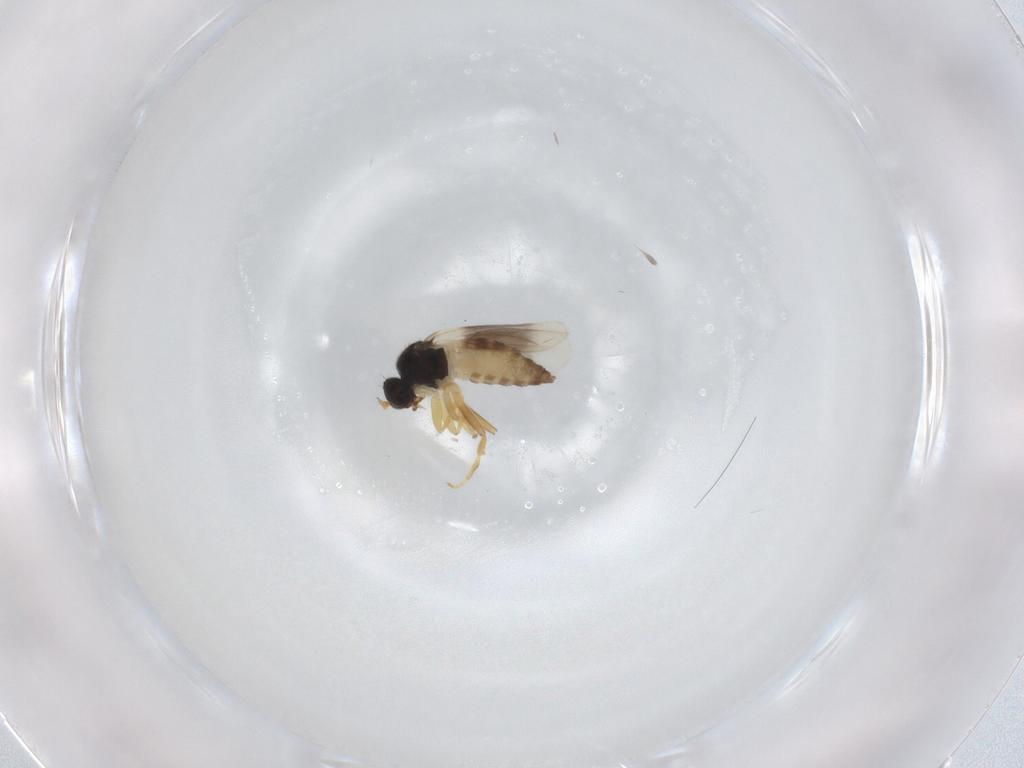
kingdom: Animalia
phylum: Arthropoda
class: Insecta
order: Diptera
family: Hybotidae
